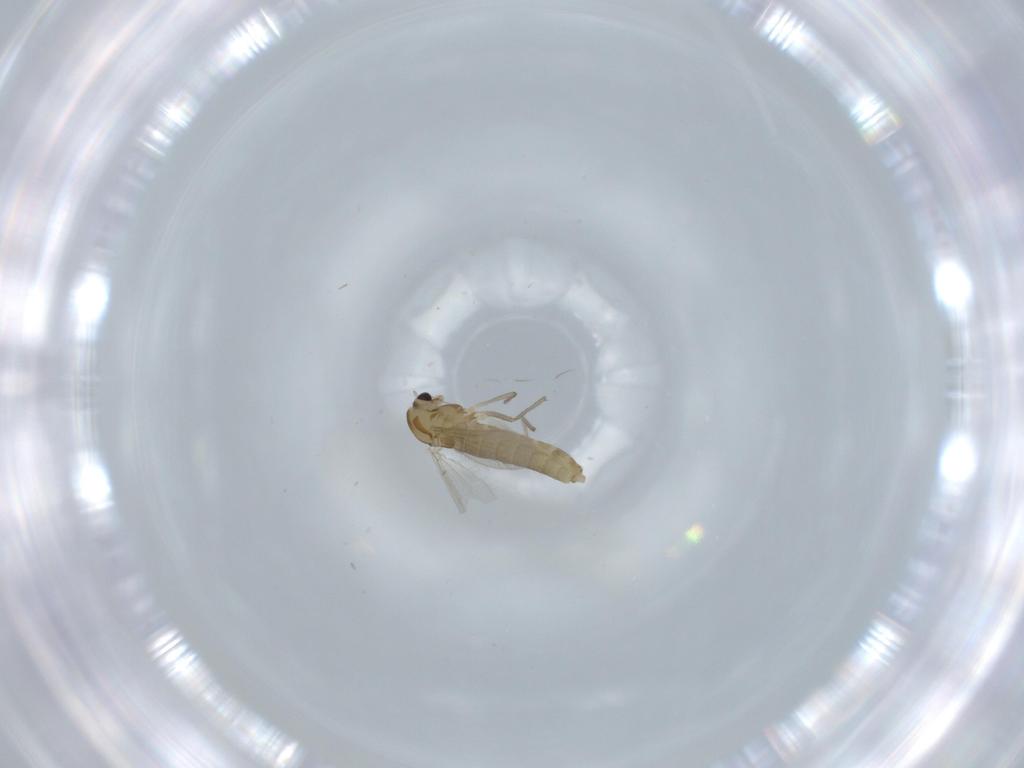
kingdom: Animalia
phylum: Arthropoda
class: Insecta
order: Diptera
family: Chironomidae
